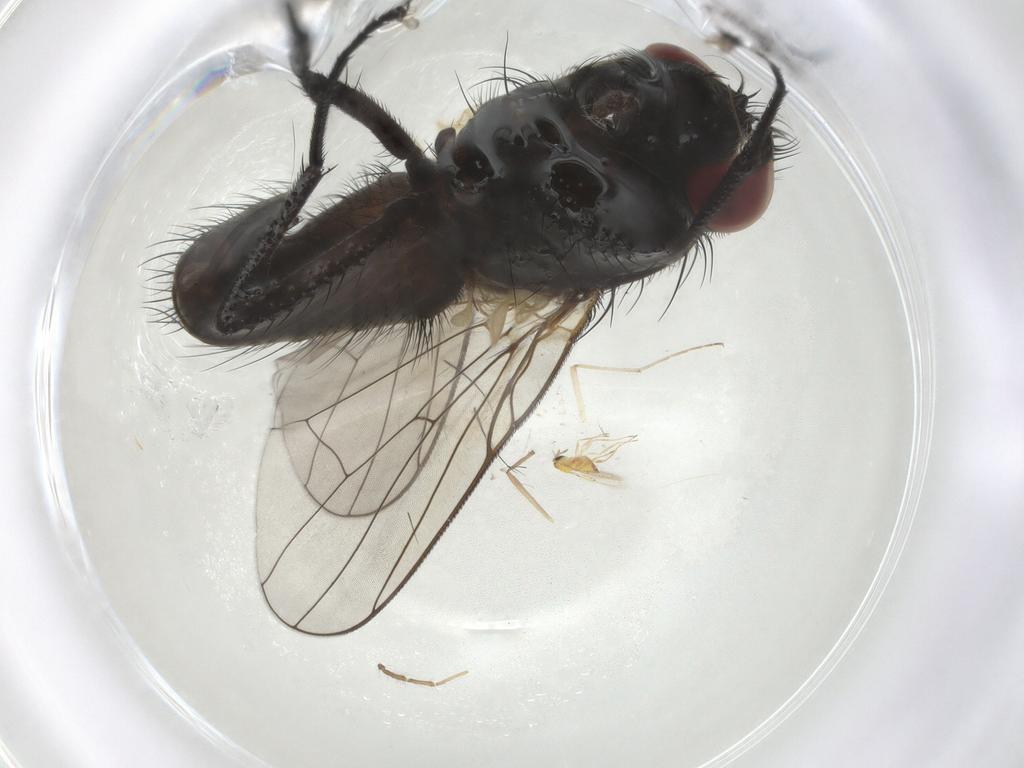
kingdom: Animalia
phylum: Arthropoda
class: Insecta
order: Diptera
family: Muscidae
